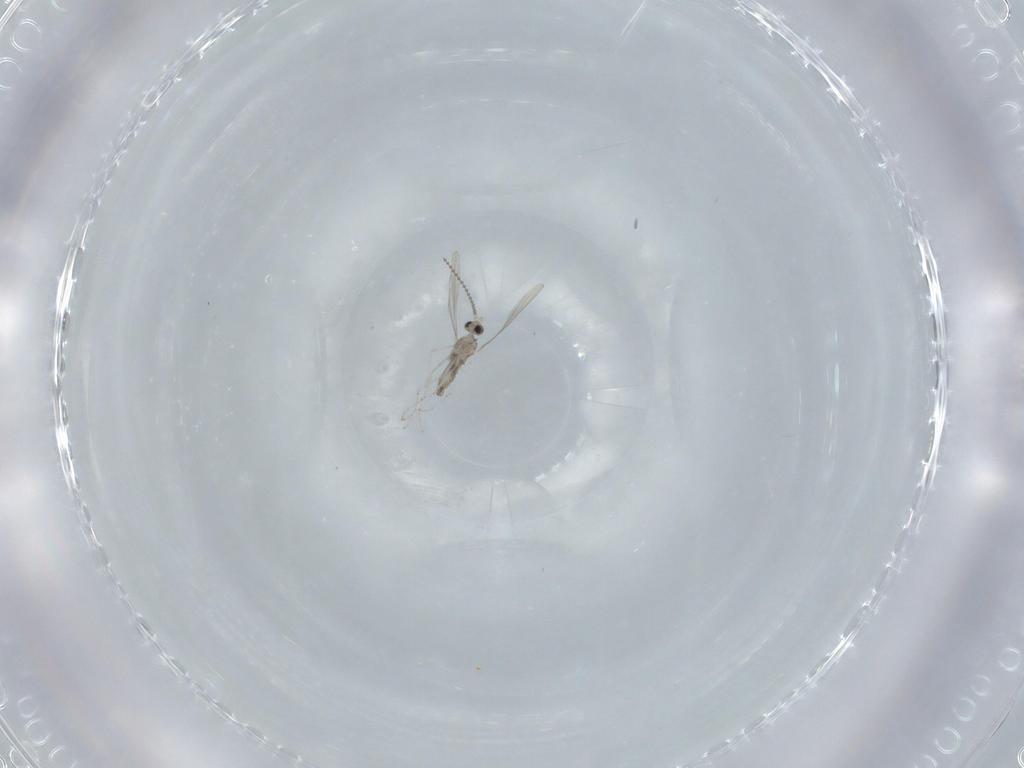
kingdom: Animalia
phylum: Arthropoda
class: Insecta
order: Diptera
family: Cecidomyiidae
